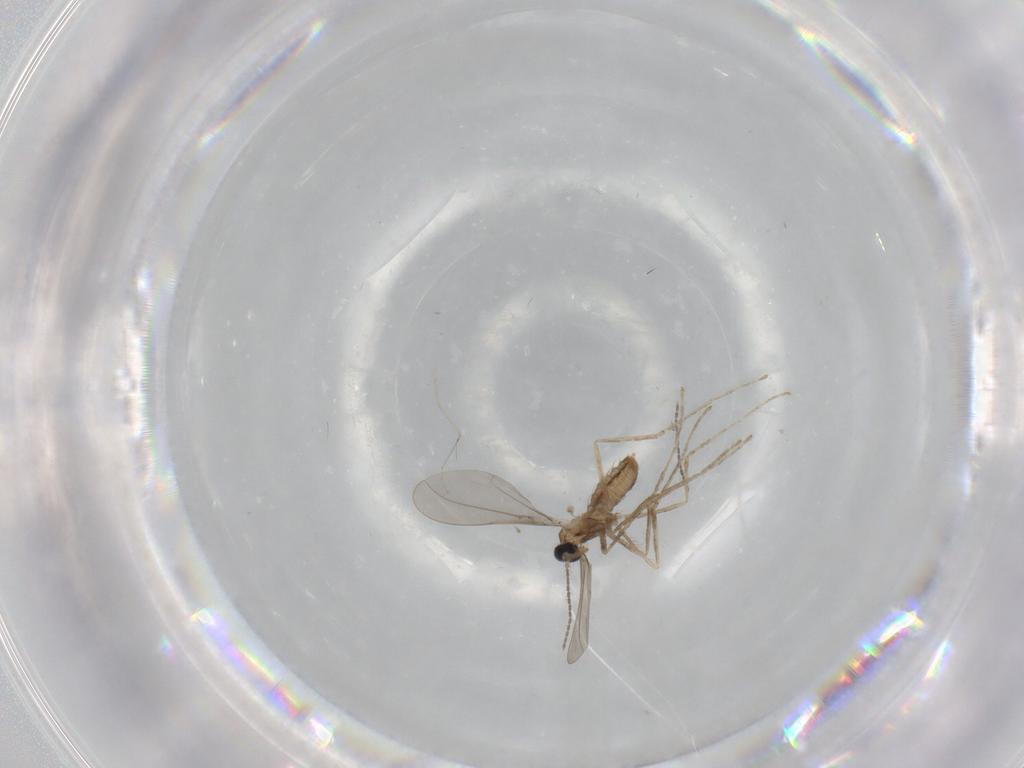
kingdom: Animalia
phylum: Arthropoda
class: Insecta
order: Diptera
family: Cecidomyiidae
